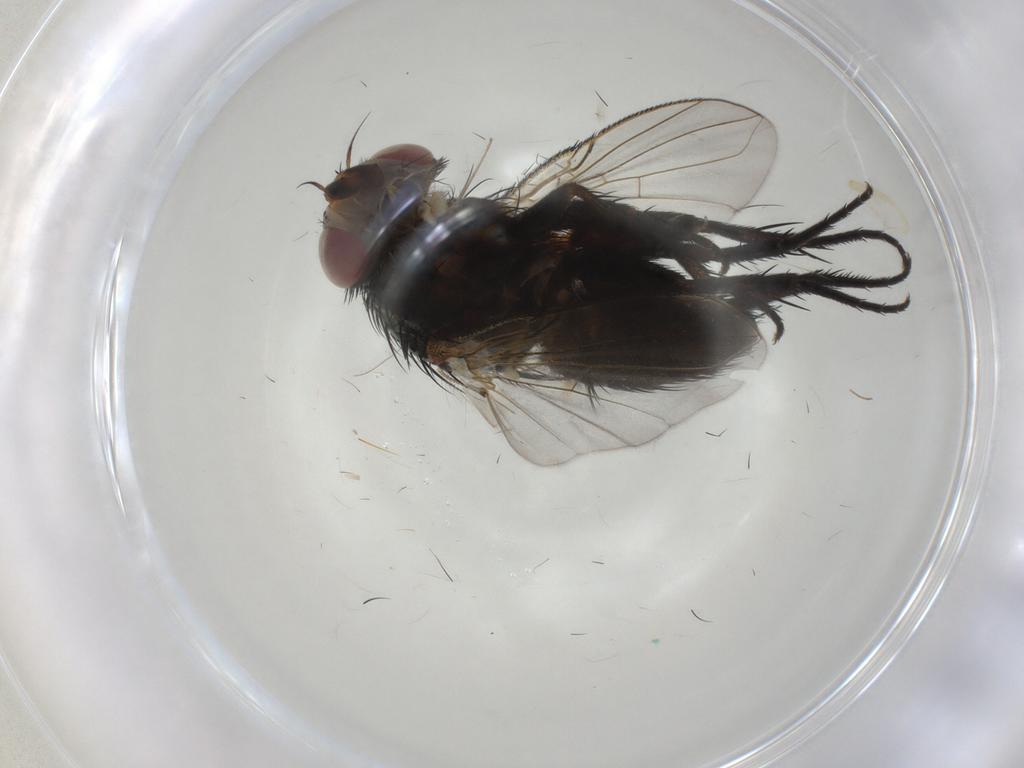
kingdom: Animalia
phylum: Arthropoda
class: Insecta
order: Diptera
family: Tachinidae
